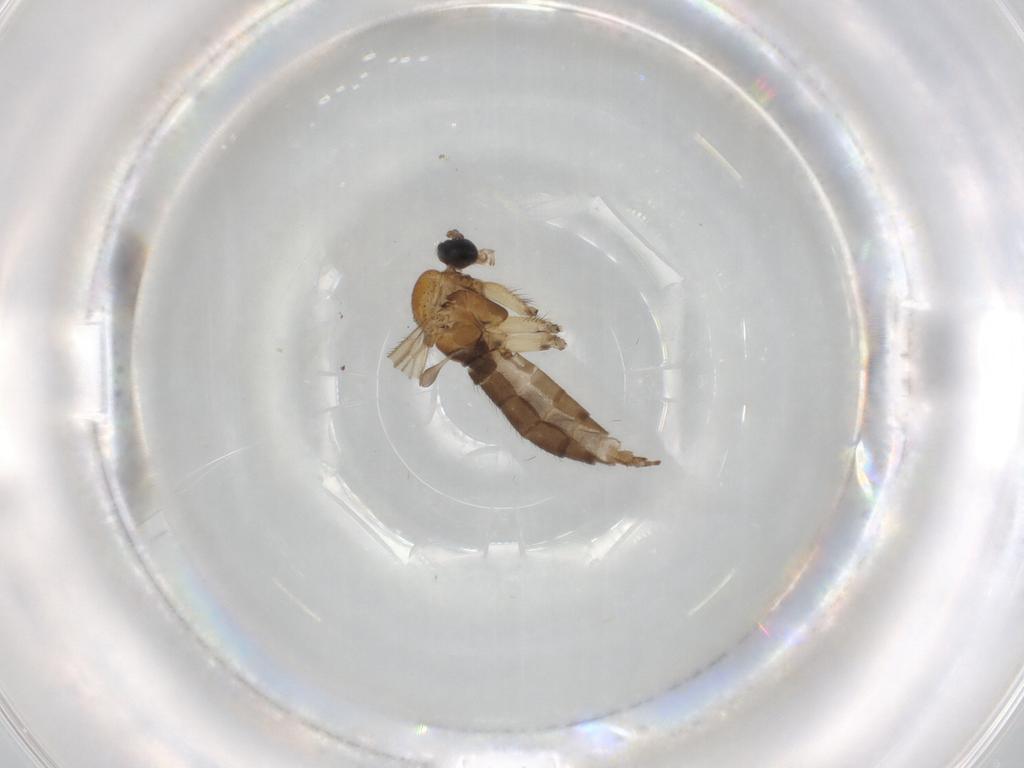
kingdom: Animalia
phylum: Arthropoda
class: Insecta
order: Diptera
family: Sciaridae
